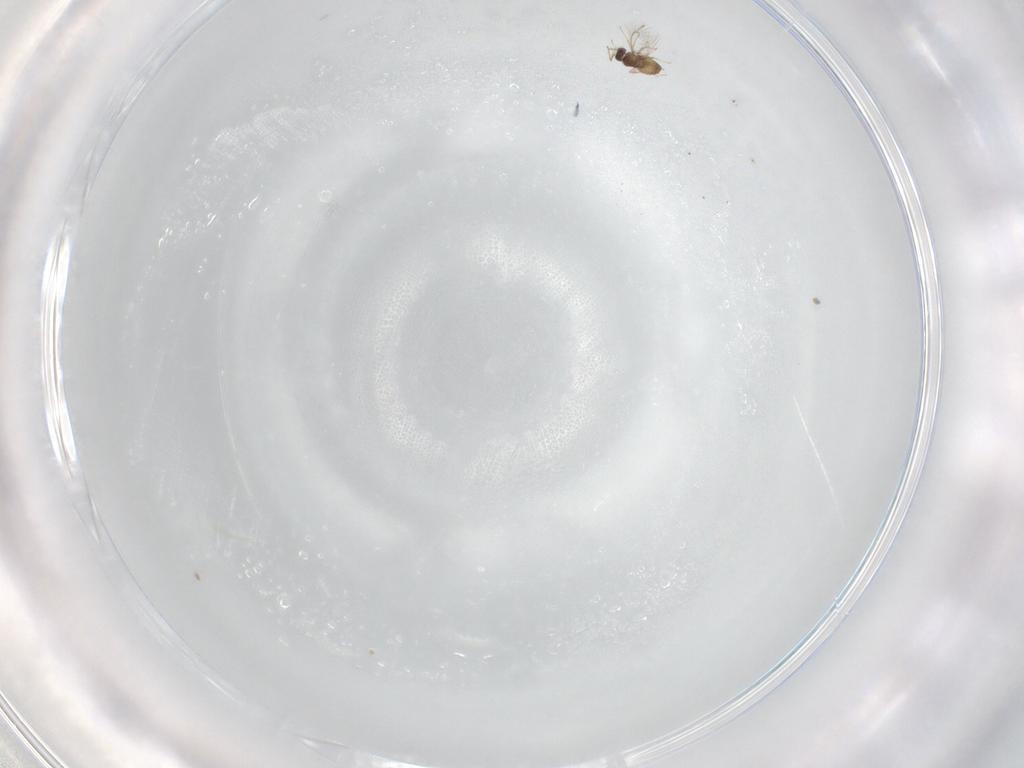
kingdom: Animalia
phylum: Arthropoda
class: Insecta
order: Hymenoptera
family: Mymaridae
